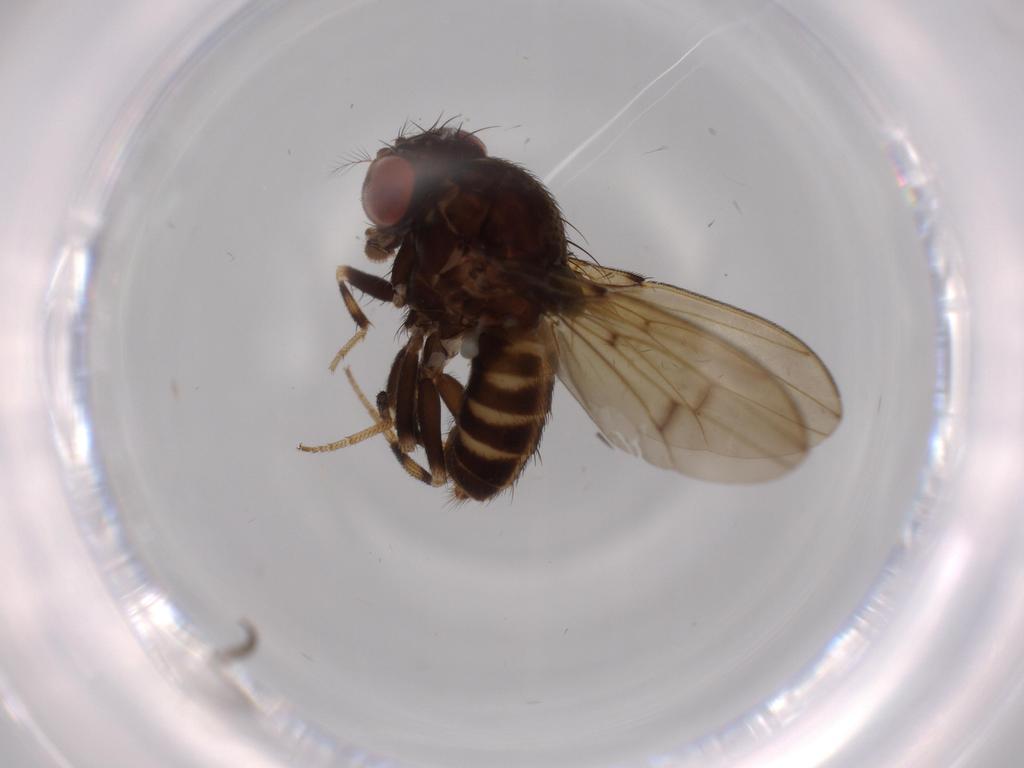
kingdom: Animalia
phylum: Arthropoda
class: Insecta
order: Diptera
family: Drosophilidae
